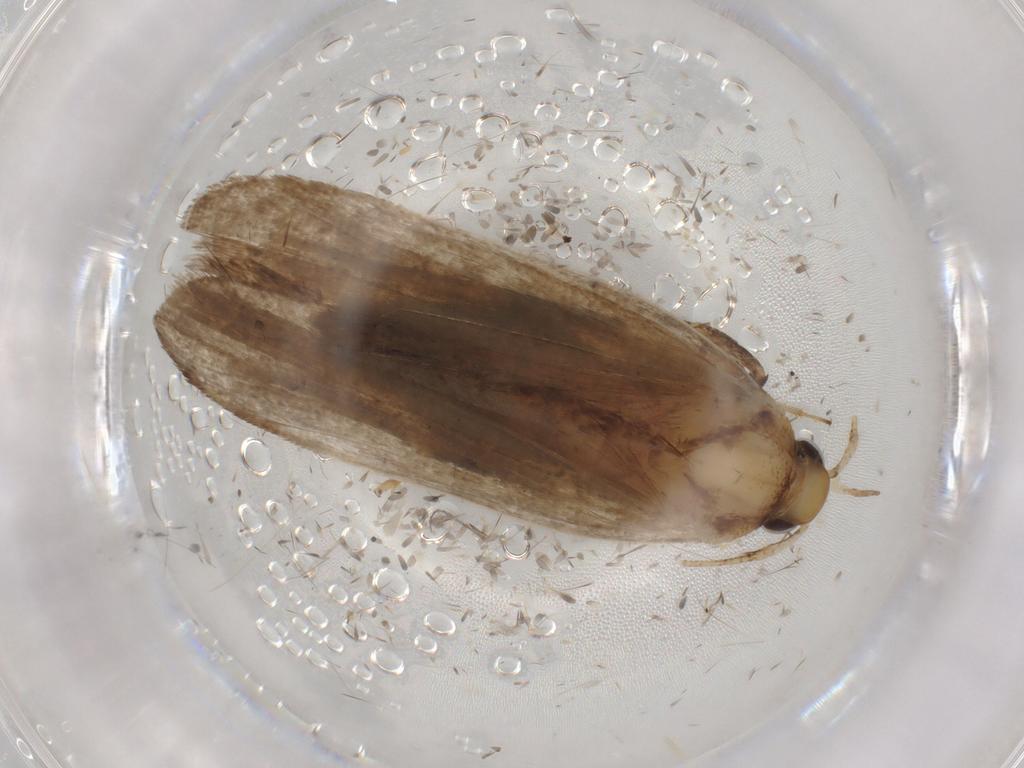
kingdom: Animalia
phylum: Arthropoda
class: Insecta
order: Lepidoptera
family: Autostichidae
